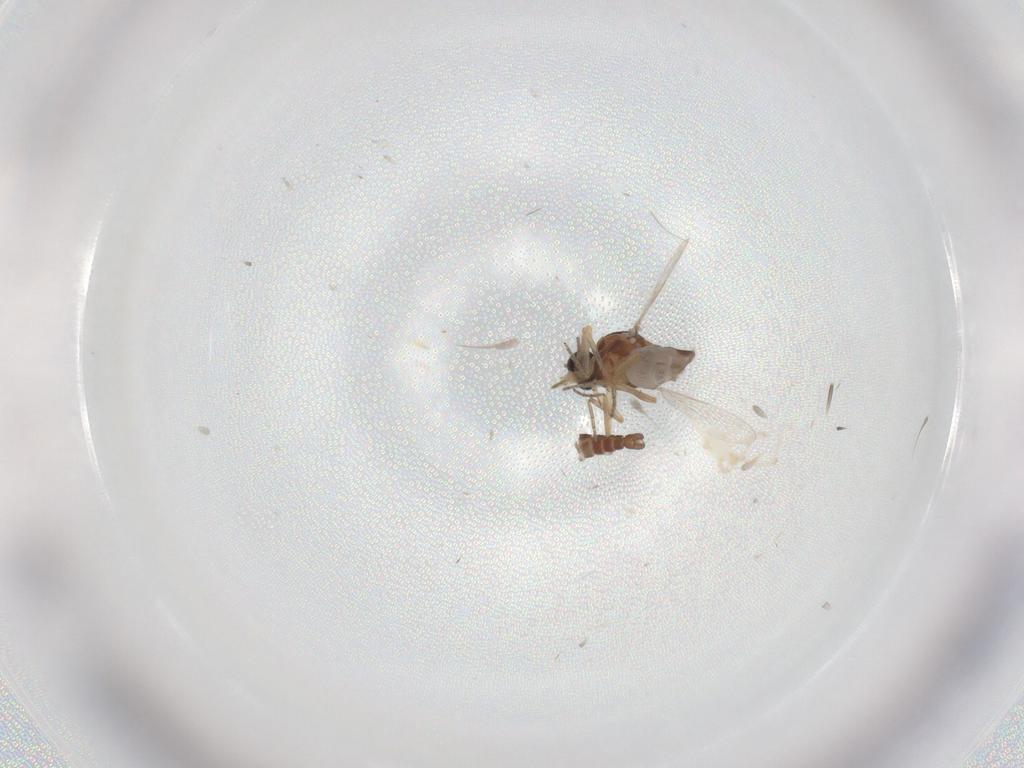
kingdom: Animalia
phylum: Arthropoda
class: Insecta
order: Diptera
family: Ceratopogonidae
